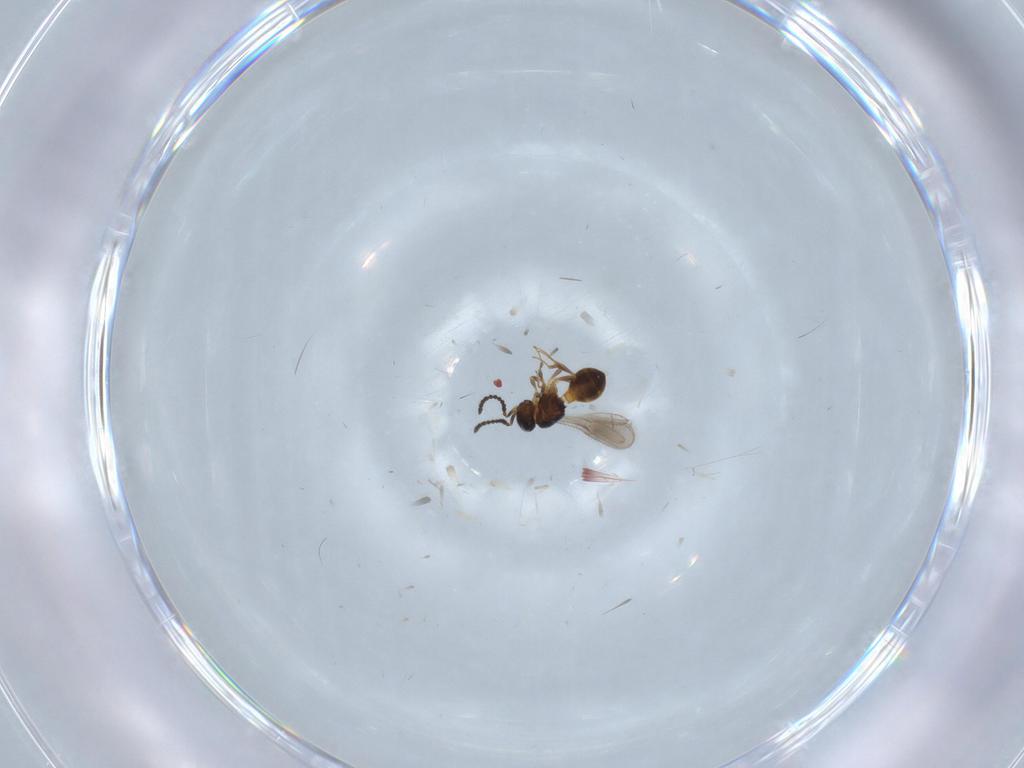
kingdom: Animalia
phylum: Arthropoda
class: Insecta
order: Hymenoptera
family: Scelionidae
